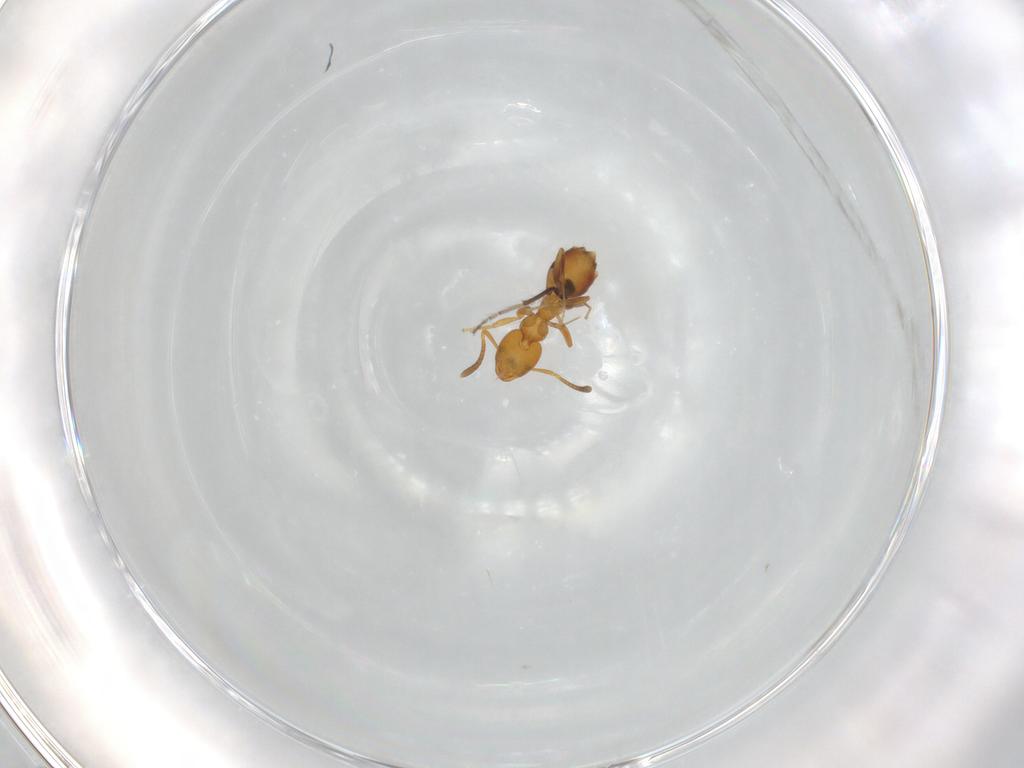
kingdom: Animalia
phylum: Arthropoda
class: Insecta
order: Hymenoptera
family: Formicidae
